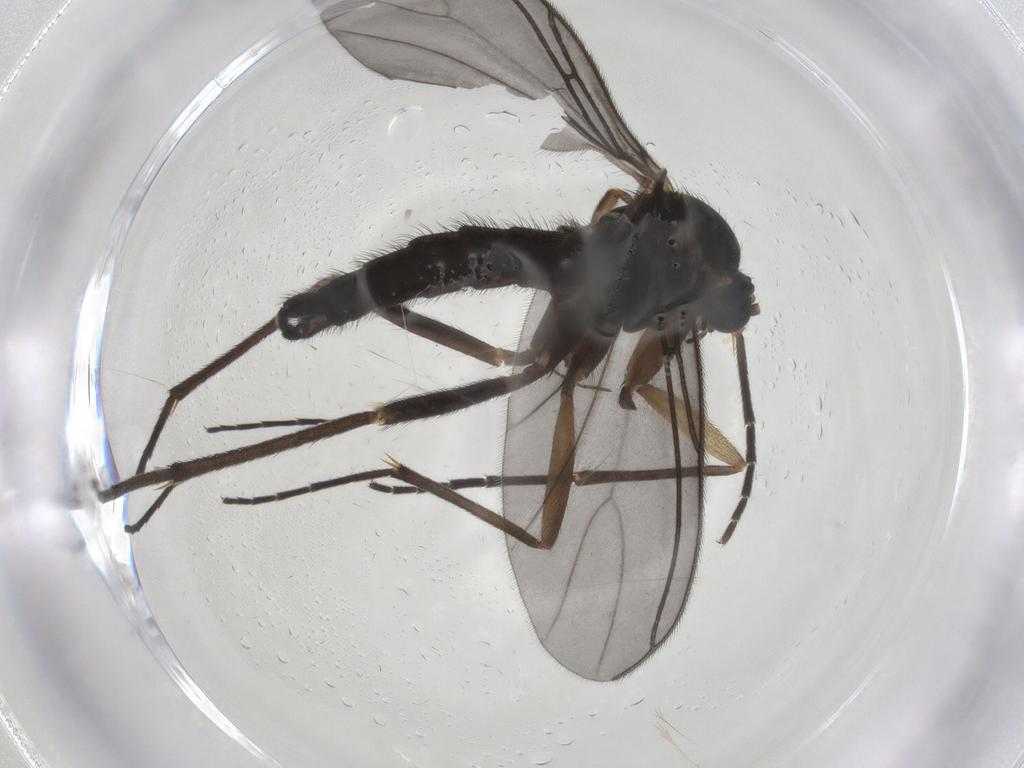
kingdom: Animalia
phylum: Arthropoda
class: Insecta
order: Diptera
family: Sciaridae
